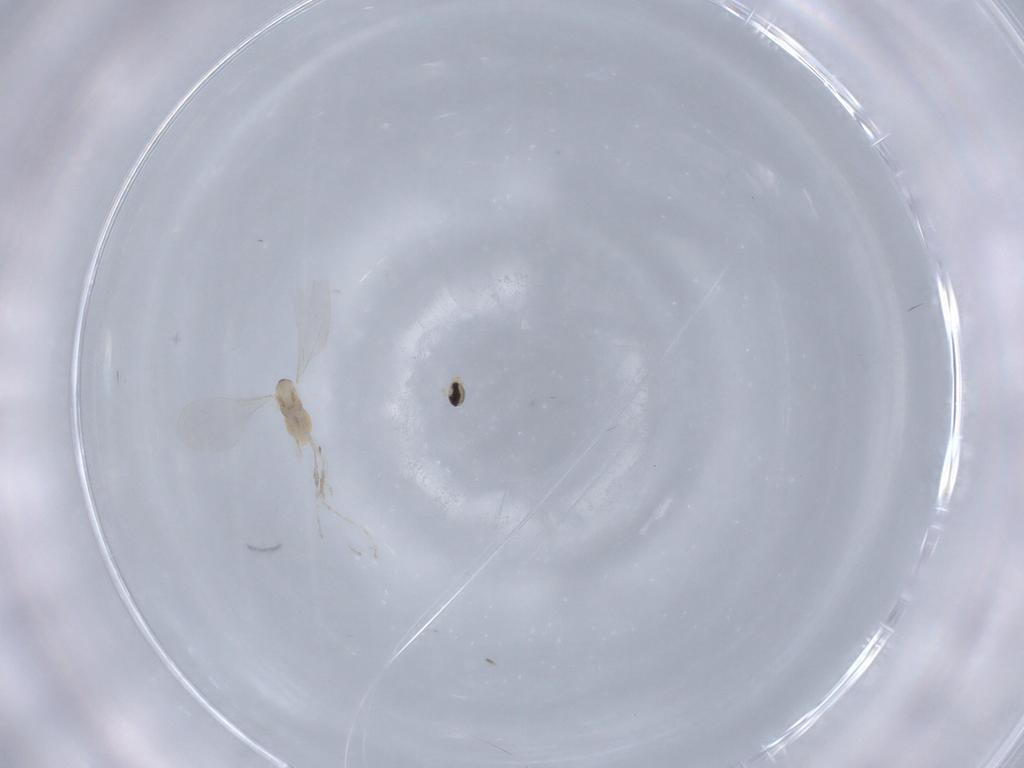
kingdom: Animalia
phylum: Arthropoda
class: Insecta
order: Diptera
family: Cecidomyiidae
